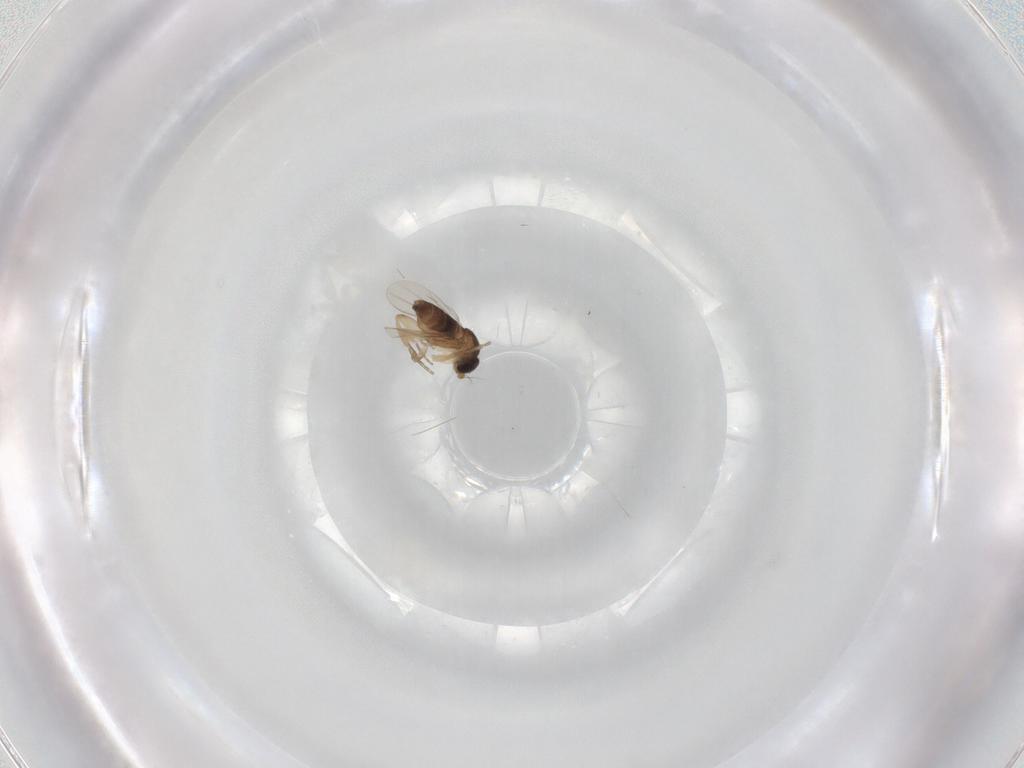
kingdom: Animalia
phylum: Arthropoda
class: Insecta
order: Diptera
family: Phoridae
